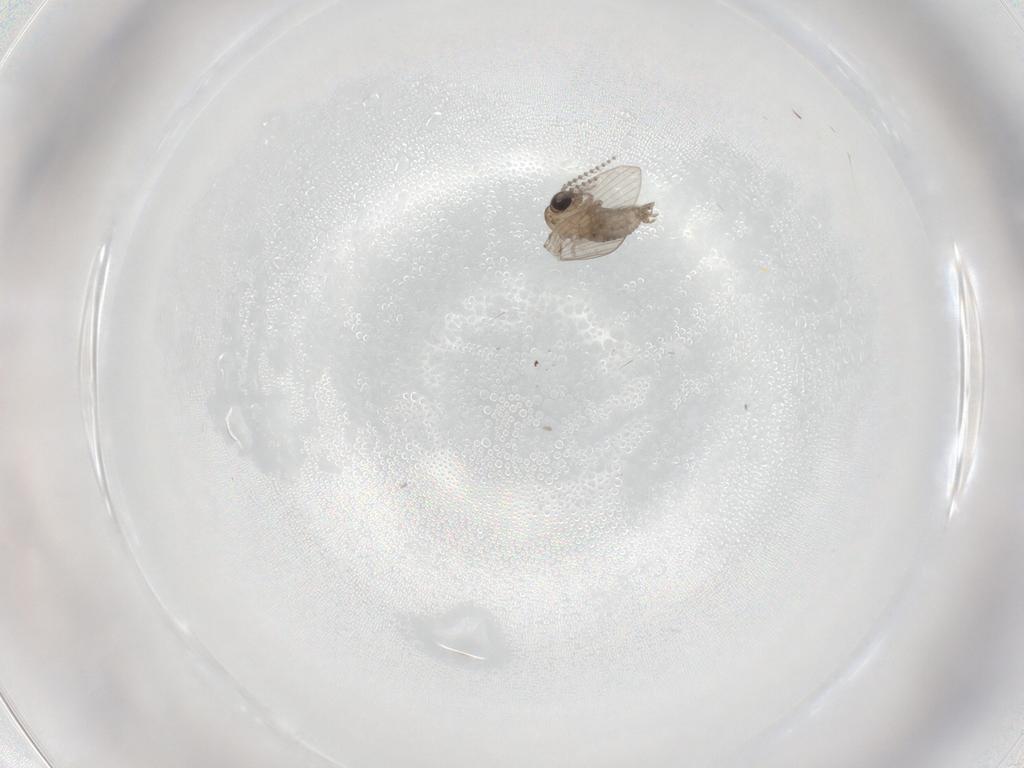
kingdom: Animalia
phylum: Arthropoda
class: Insecta
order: Diptera
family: Psychodidae
